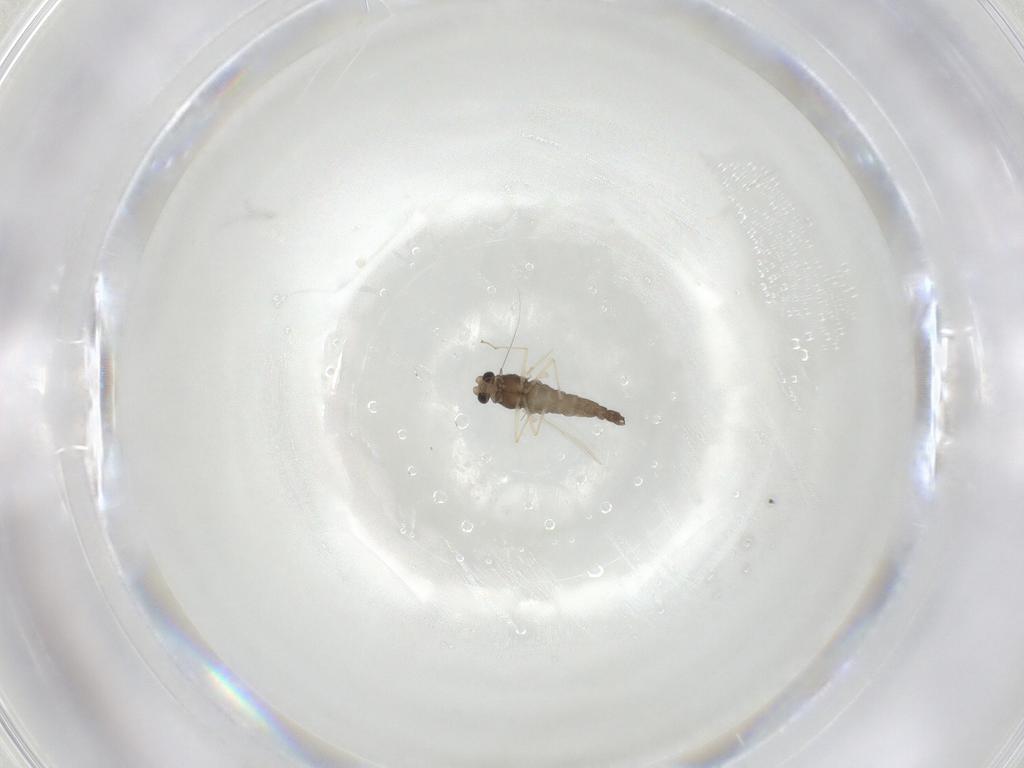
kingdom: Animalia
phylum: Arthropoda
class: Insecta
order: Diptera
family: Chironomidae
